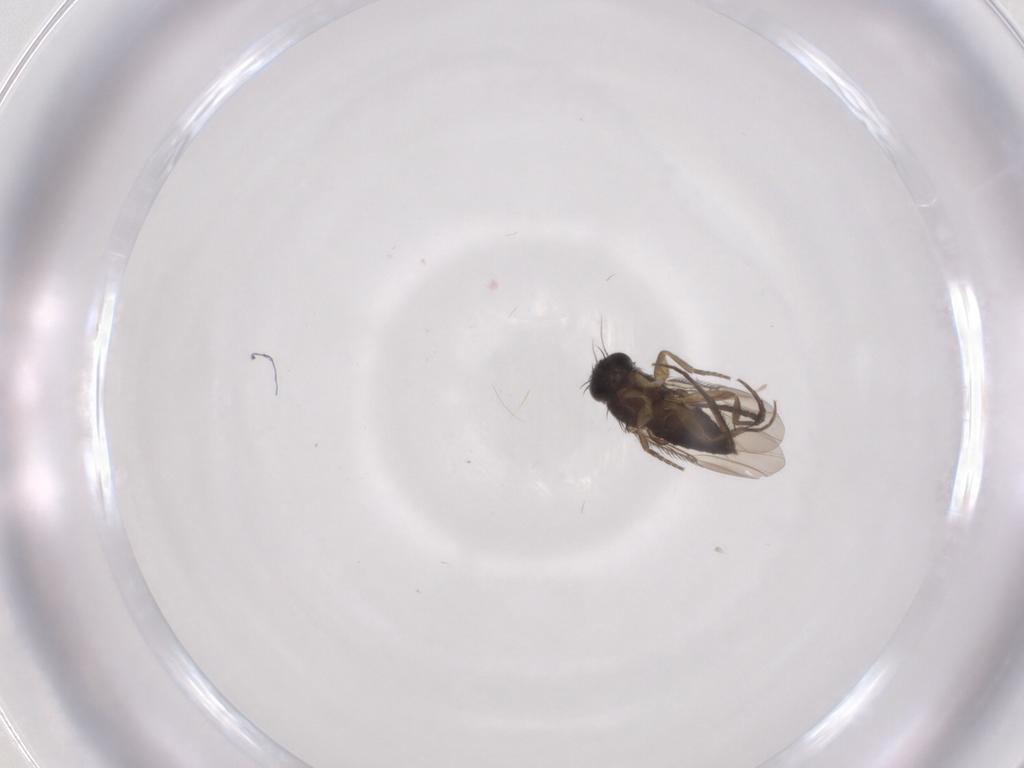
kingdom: Animalia
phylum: Arthropoda
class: Insecta
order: Diptera
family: Phoridae
